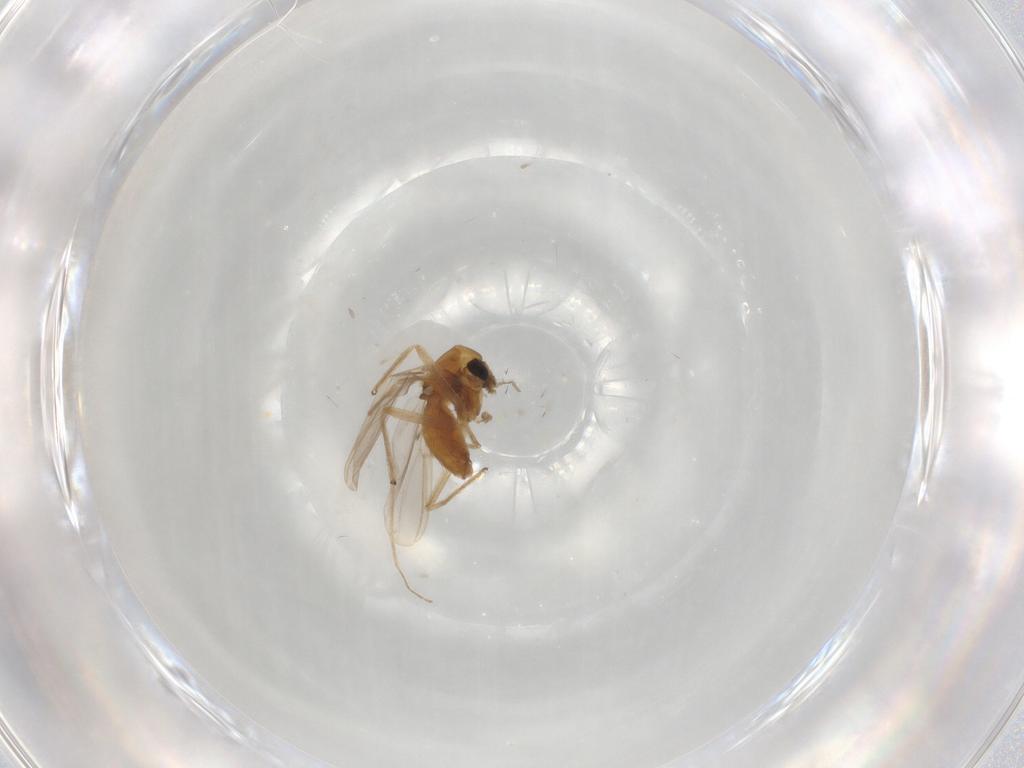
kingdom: Animalia
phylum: Arthropoda
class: Insecta
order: Diptera
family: Chironomidae
